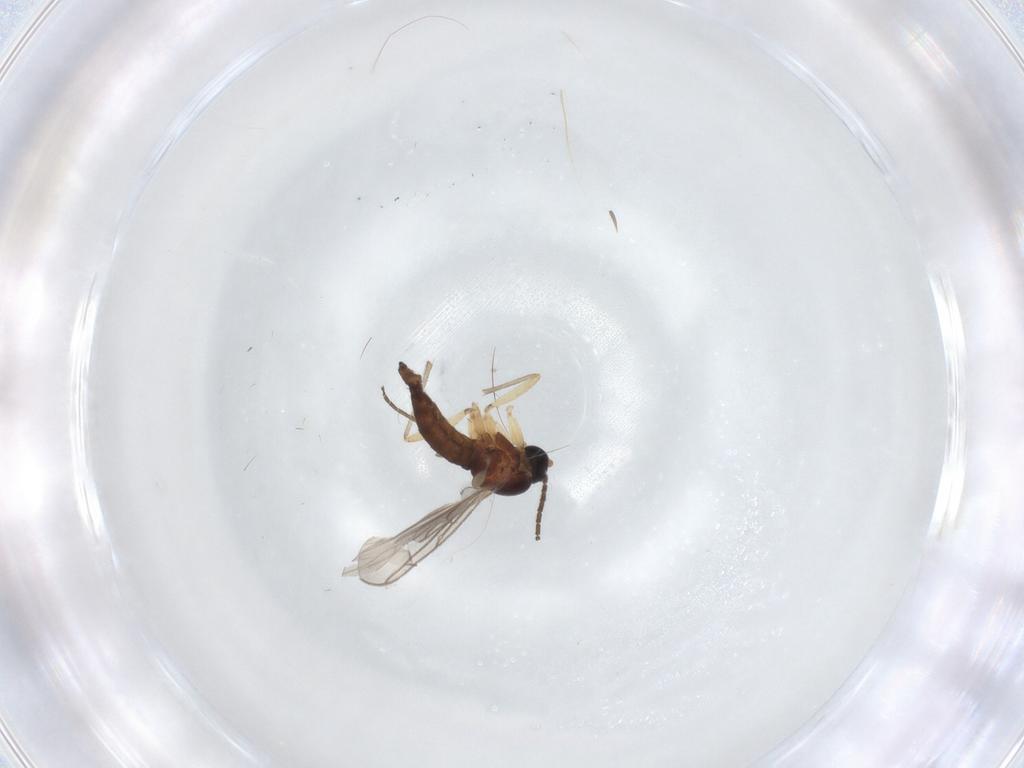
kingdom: Animalia
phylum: Arthropoda
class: Insecta
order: Diptera
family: Sciaridae
